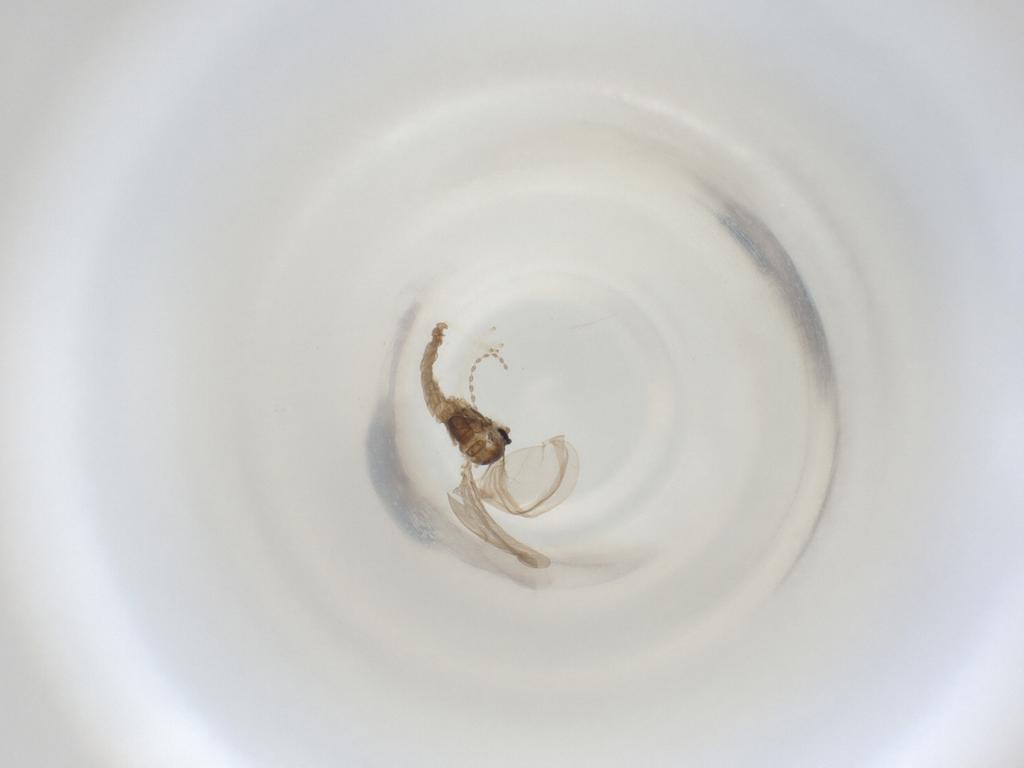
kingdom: Animalia
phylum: Arthropoda
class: Insecta
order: Diptera
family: Cecidomyiidae
